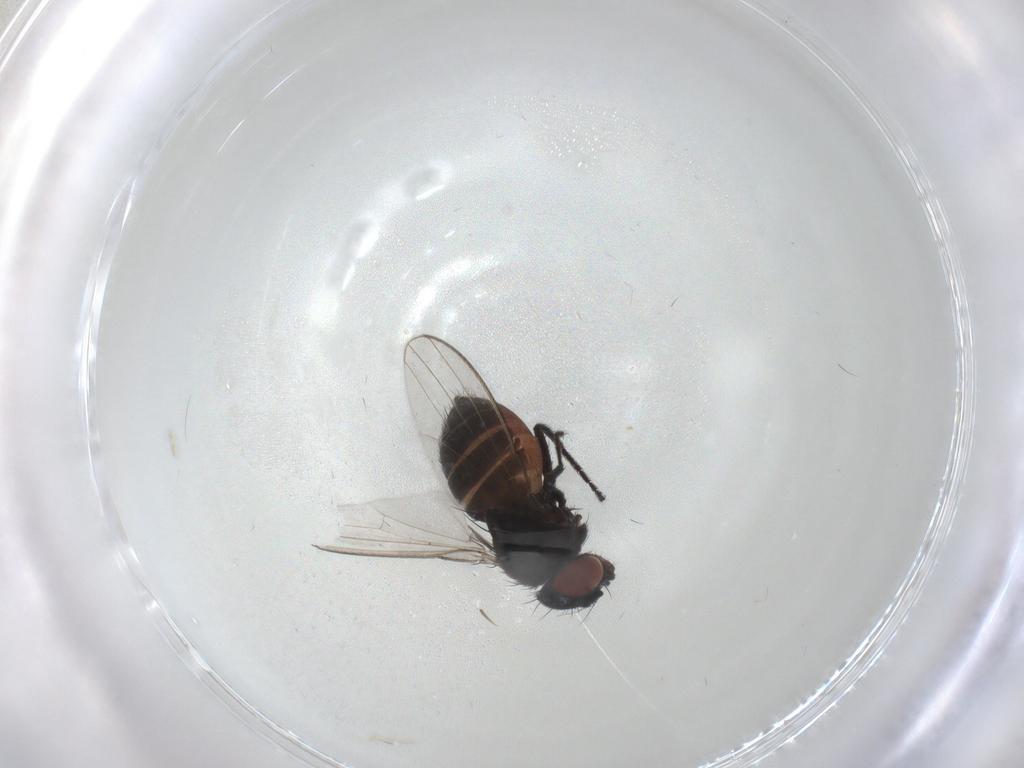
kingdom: Animalia
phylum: Arthropoda
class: Insecta
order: Diptera
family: Milichiidae
